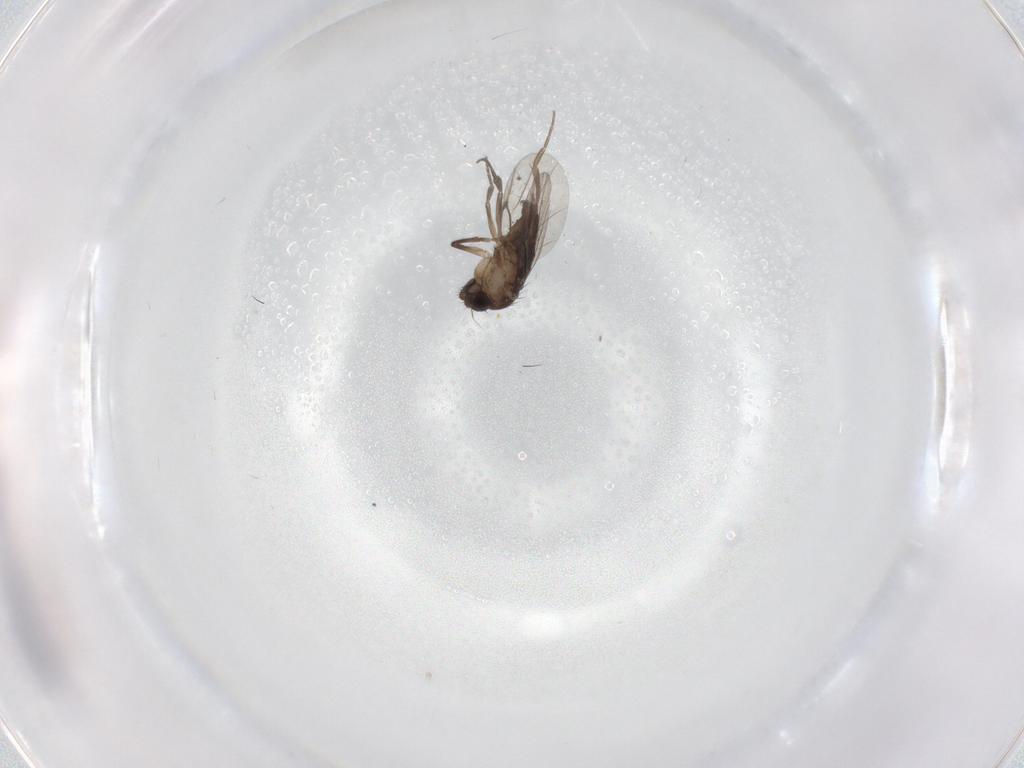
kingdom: Animalia
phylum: Arthropoda
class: Insecta
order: Diptera
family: Phoridae
